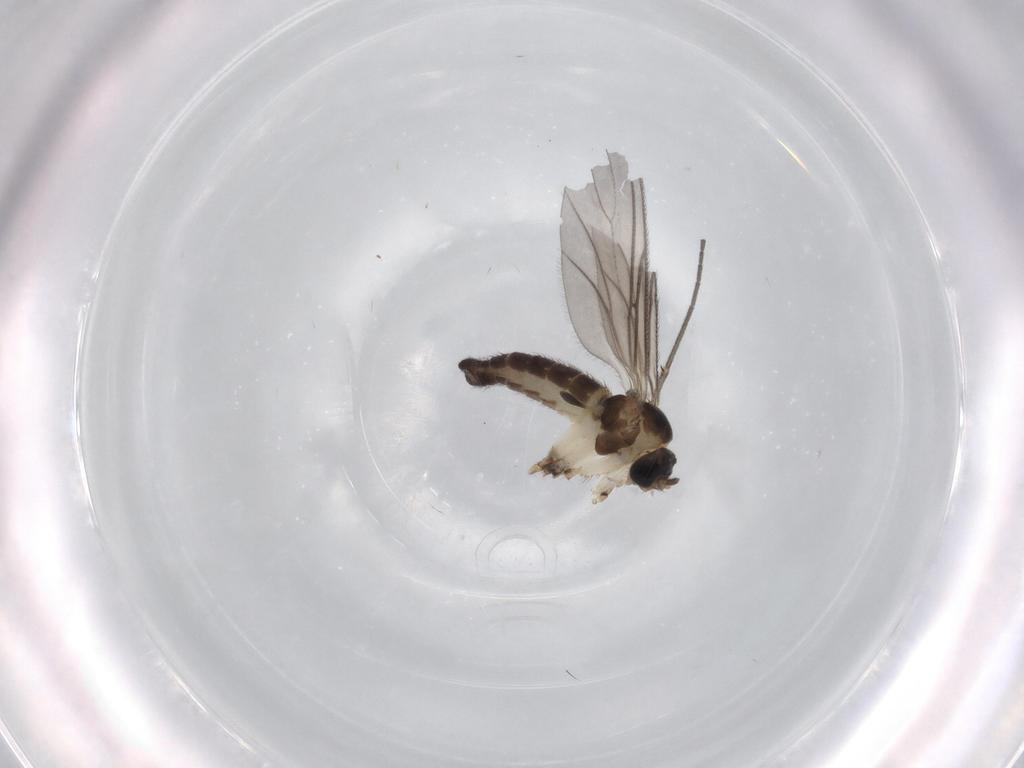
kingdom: Animalia
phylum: Arthropoda
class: Insecta
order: Diptera
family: Sciaridae
